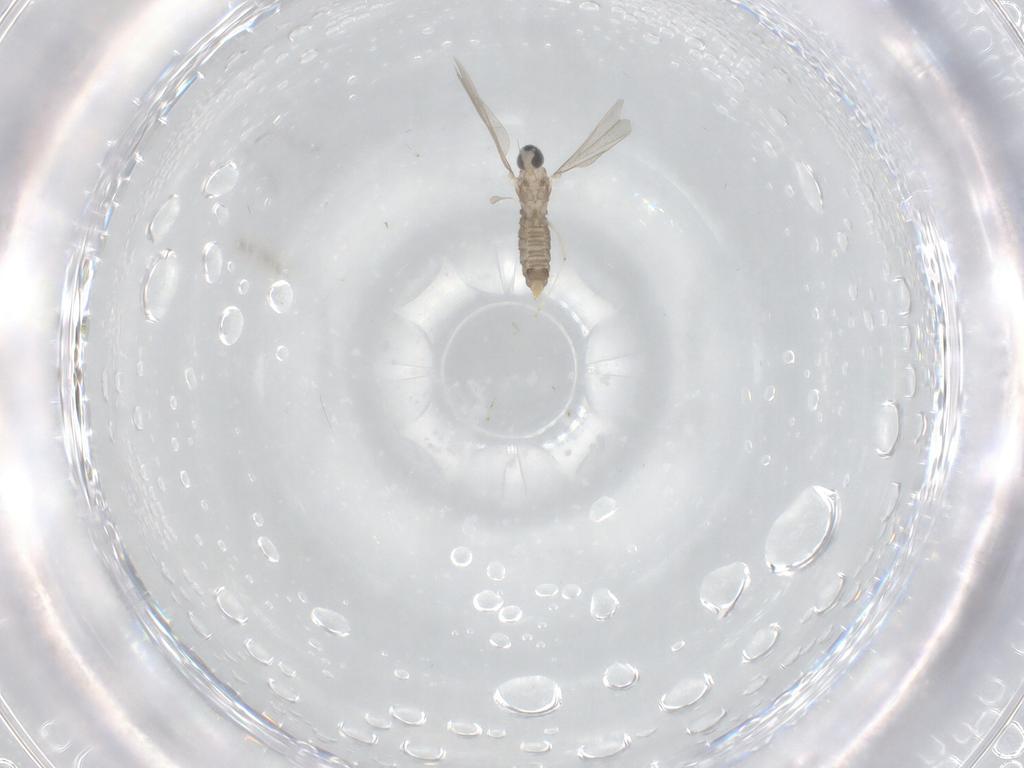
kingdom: Animalia
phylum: Arthropoda
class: Insecta
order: Diptera
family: Cecidomyiidae
